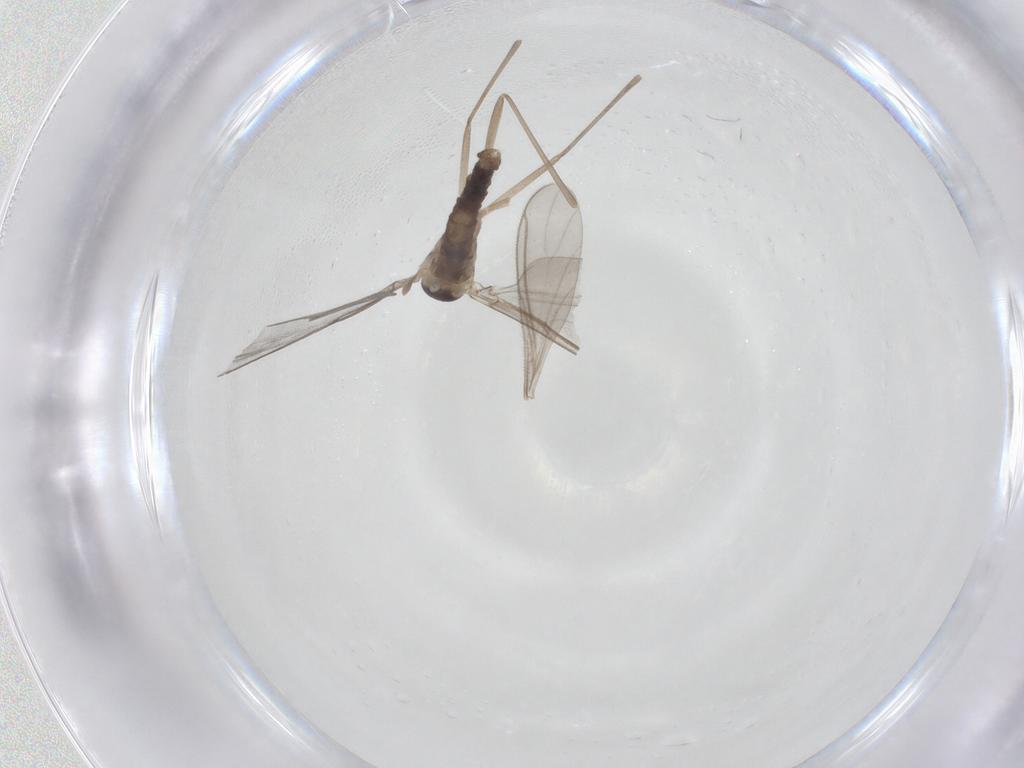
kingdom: Animalia
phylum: Arthropoda
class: Insecta
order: Diptera
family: Cecidomyiidae
